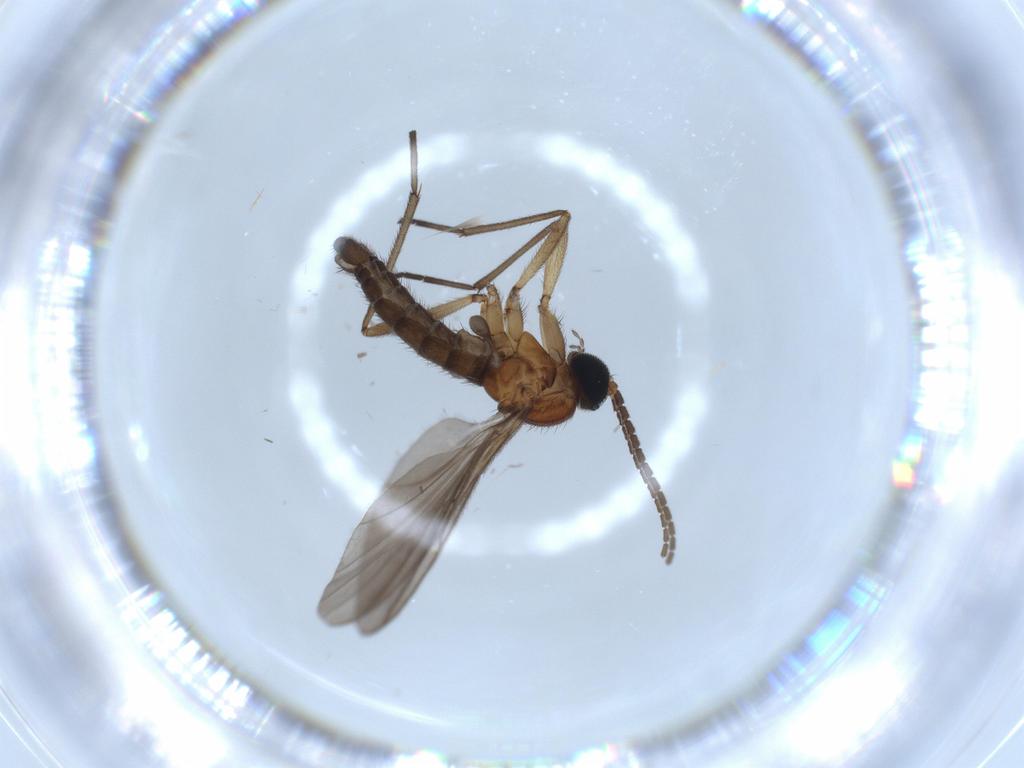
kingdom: Animalia
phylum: Arthropoda
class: Insecta
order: Diptera
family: Sciaridae
